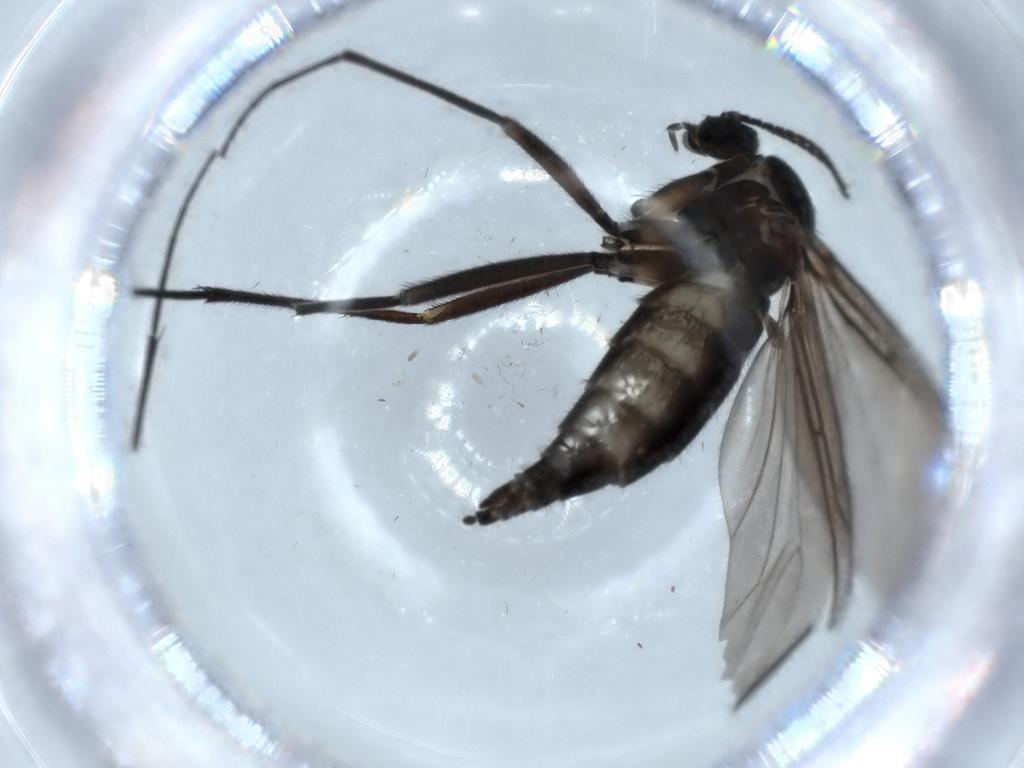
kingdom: Animalia
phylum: Arthropoda
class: Insecta
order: Diptera
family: Sciaridae
